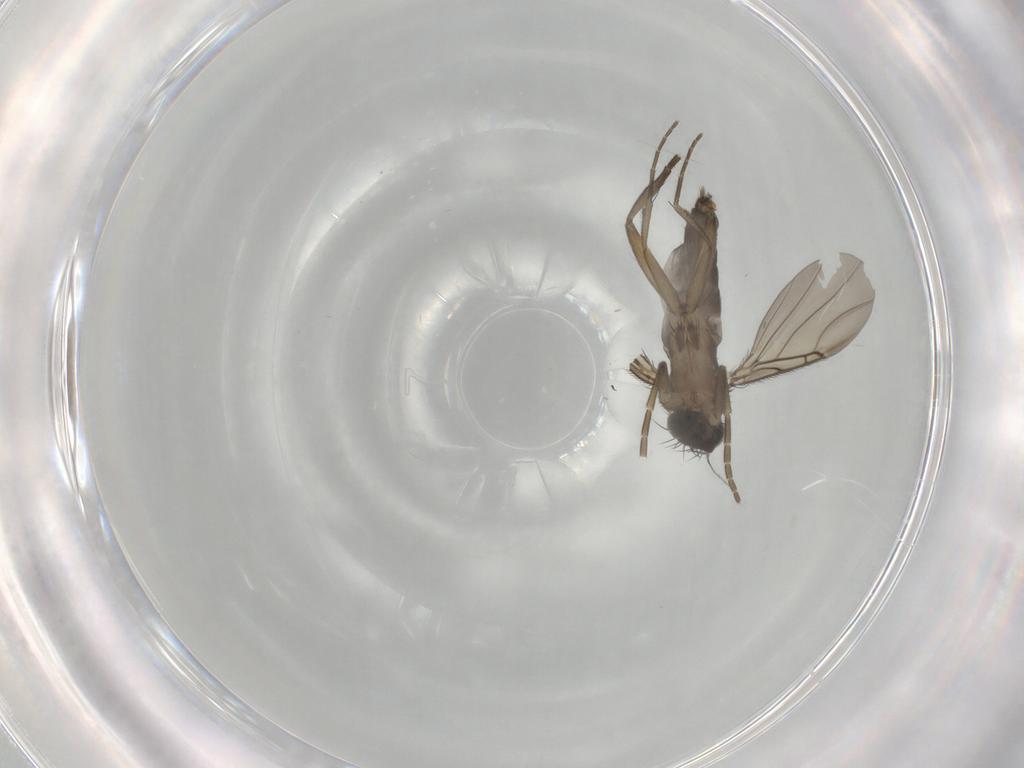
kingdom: Animalia
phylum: Arthropoda
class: Insecta
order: Diptera
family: Phoridae
